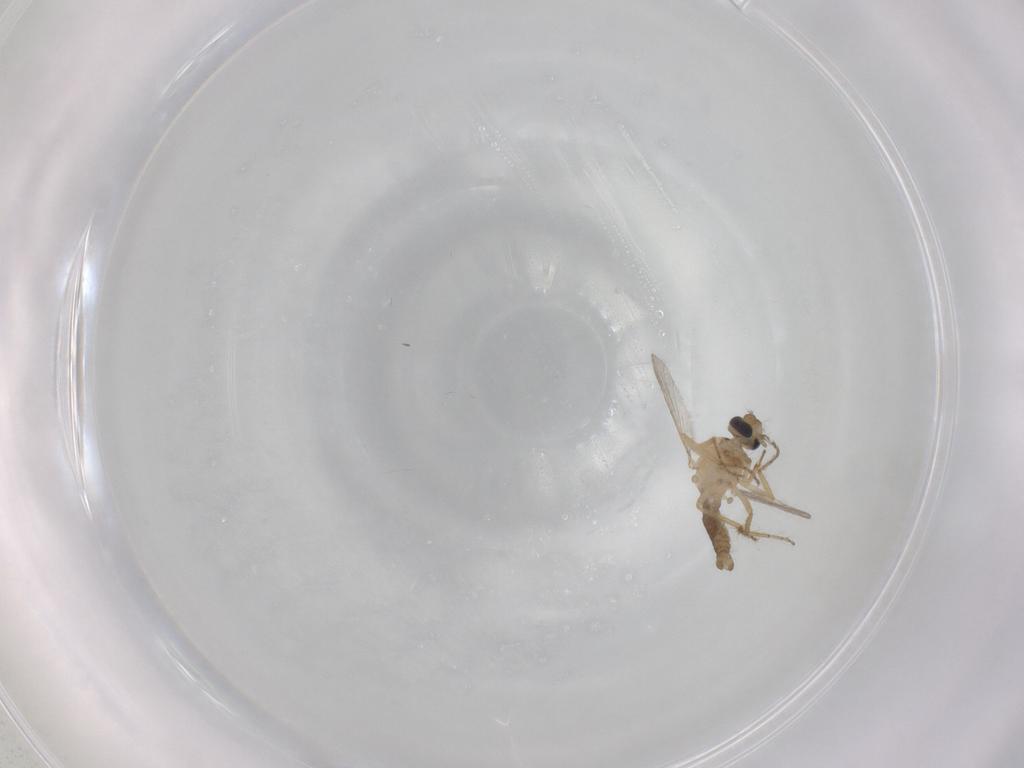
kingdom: Animalia
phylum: Arthropoda
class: Insecta
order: Diptera
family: Ceratopogonidae
